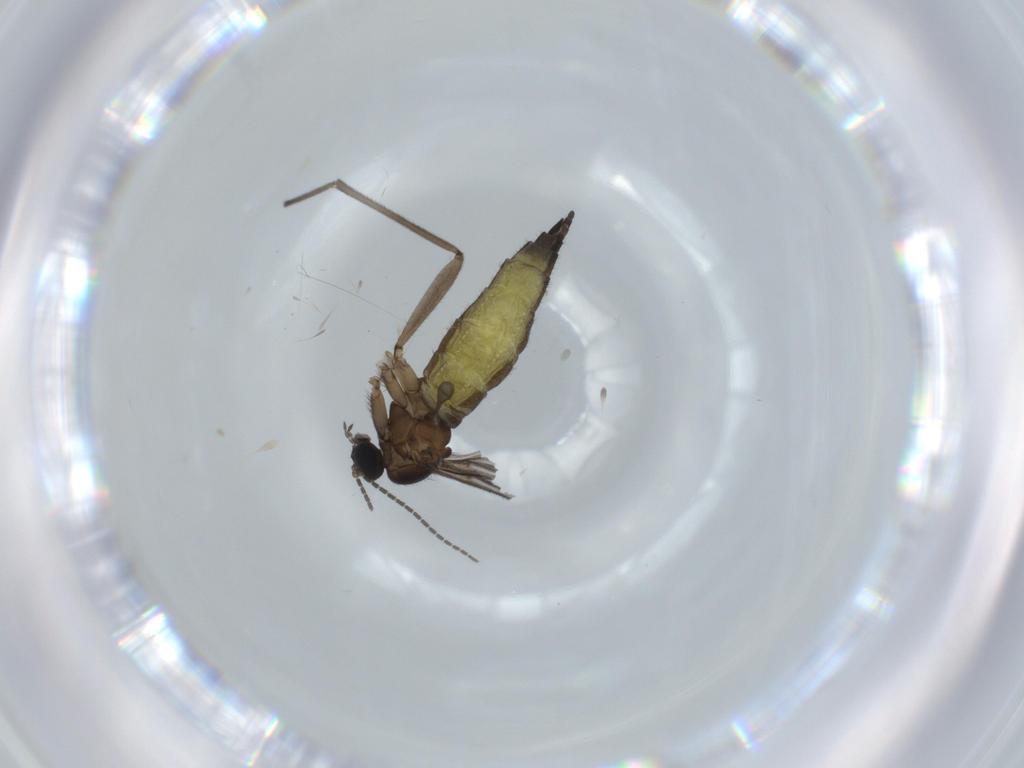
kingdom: Animalia
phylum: Arthropoda
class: Insecta
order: Diptera
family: Sciaridae
